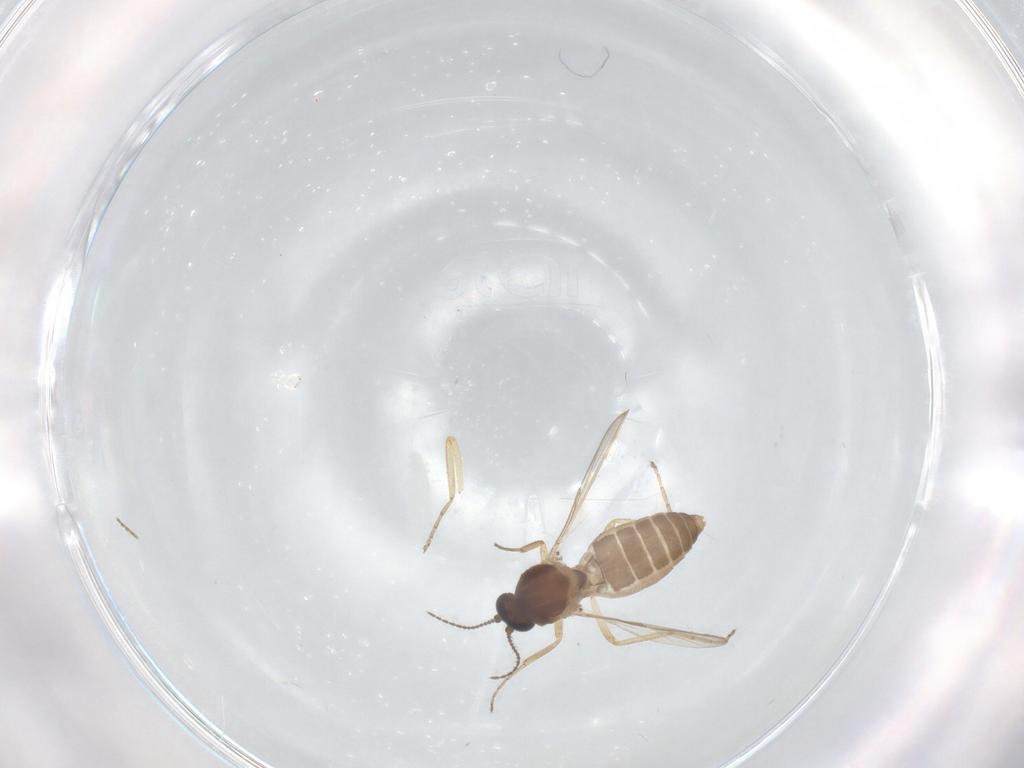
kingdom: Animalia
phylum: Arthropoda
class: Insecta
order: Diptera
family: Ceratopogonidae
